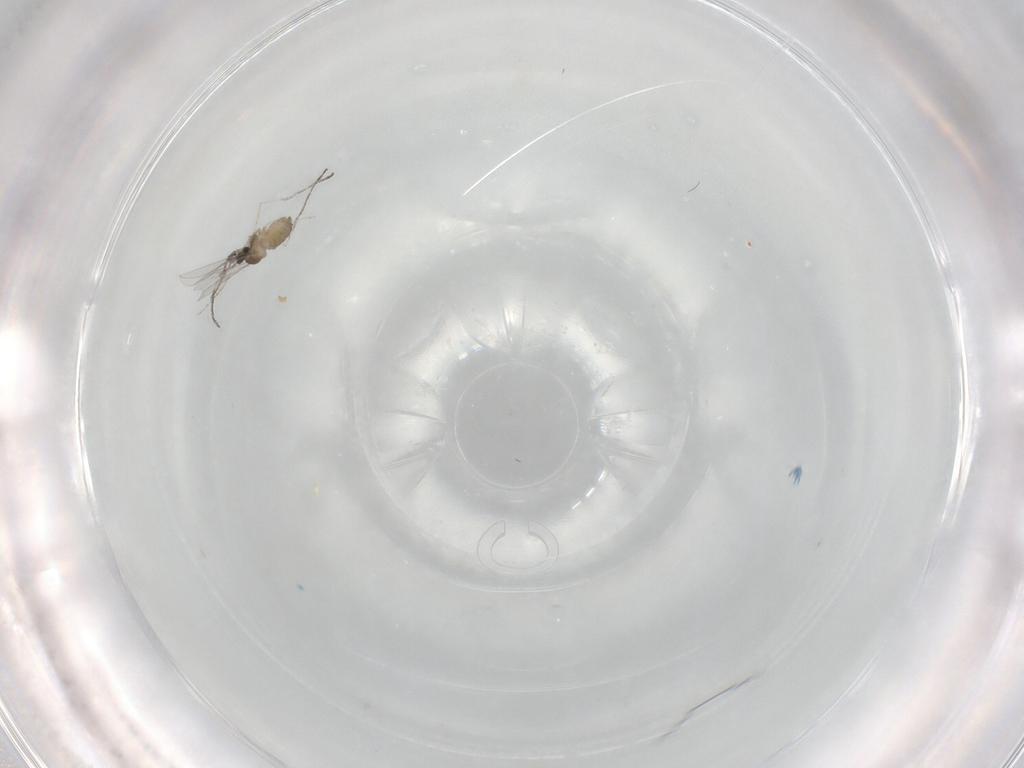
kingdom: Animalia
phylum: Arthropoda
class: Insecta
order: Diptera
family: Cecidomyiidae
